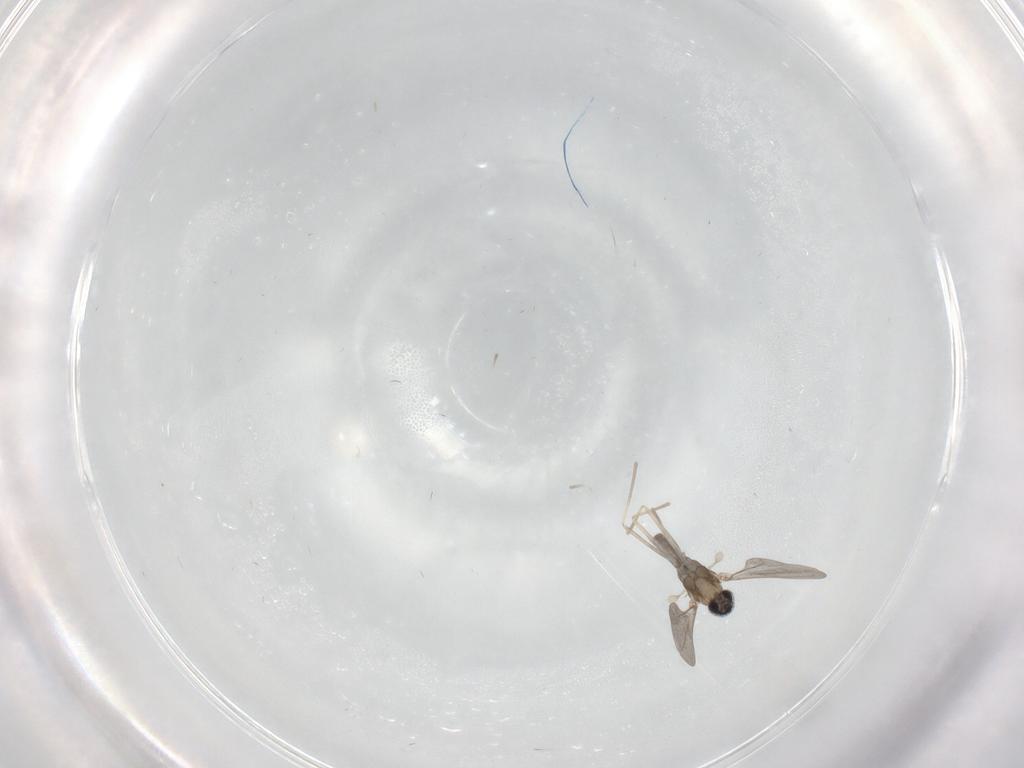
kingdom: Animalia
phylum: Arthropoda
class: Insecta
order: Diptera
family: Cecidomyiidae
